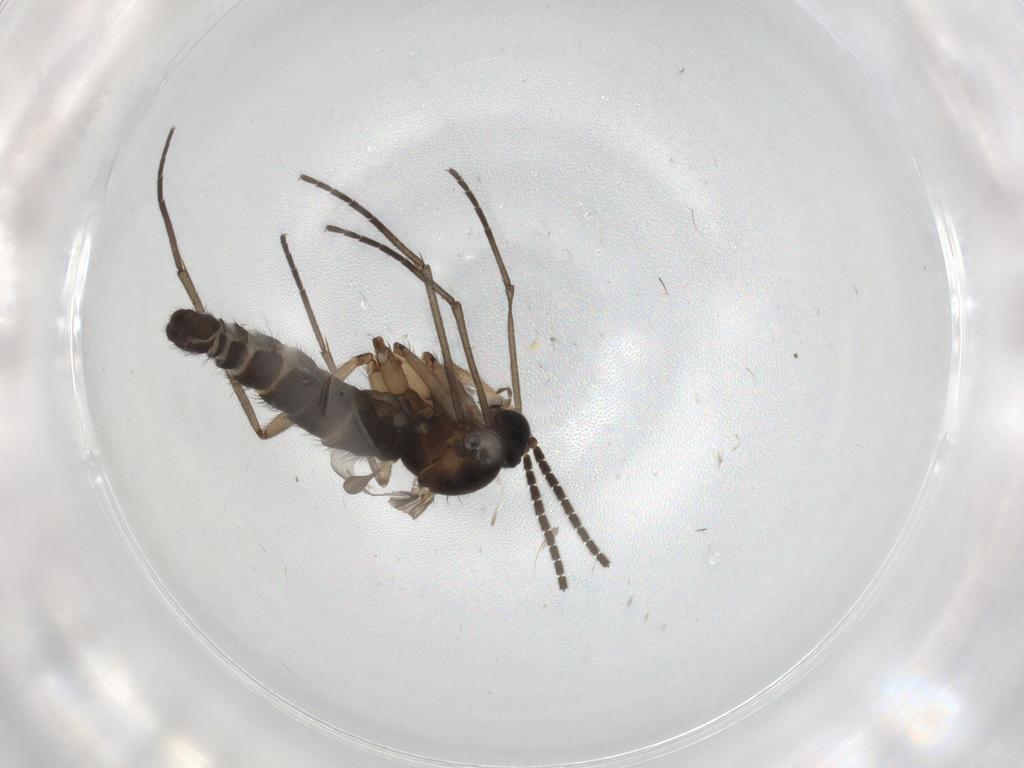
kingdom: Animalia
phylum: Arthropoda
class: Insecta
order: Diptera
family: Sciaridae
